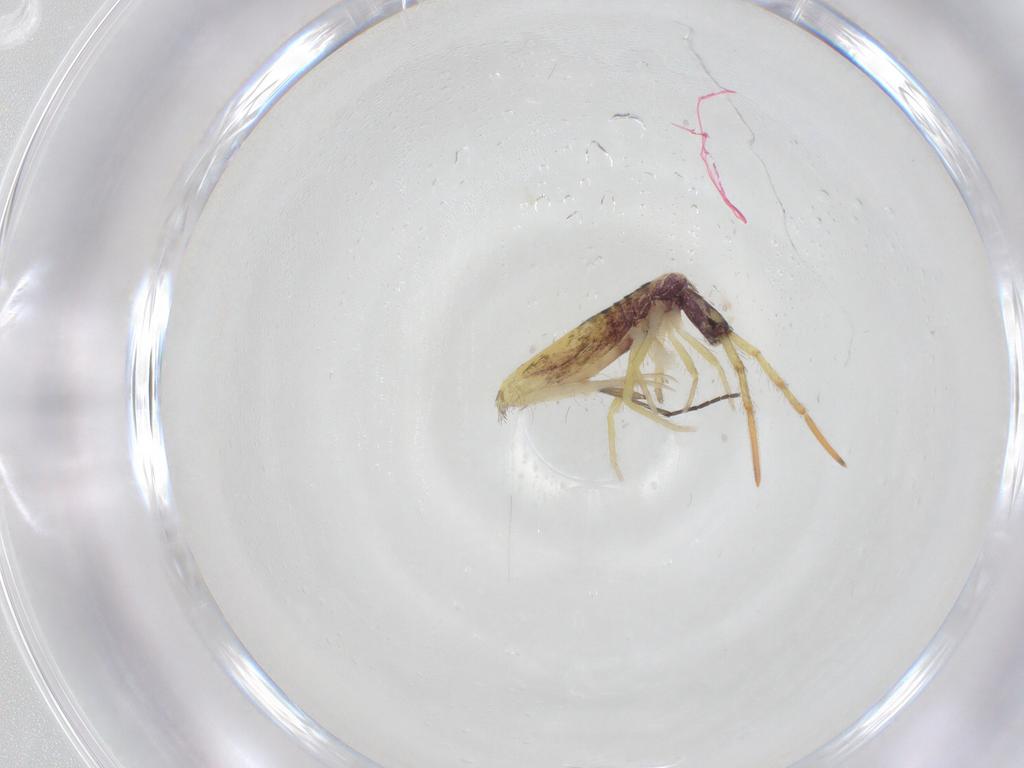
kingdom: Animalia
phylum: Arthropoda
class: Collembola
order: Entomobryomorpha
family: Entomobryidae
